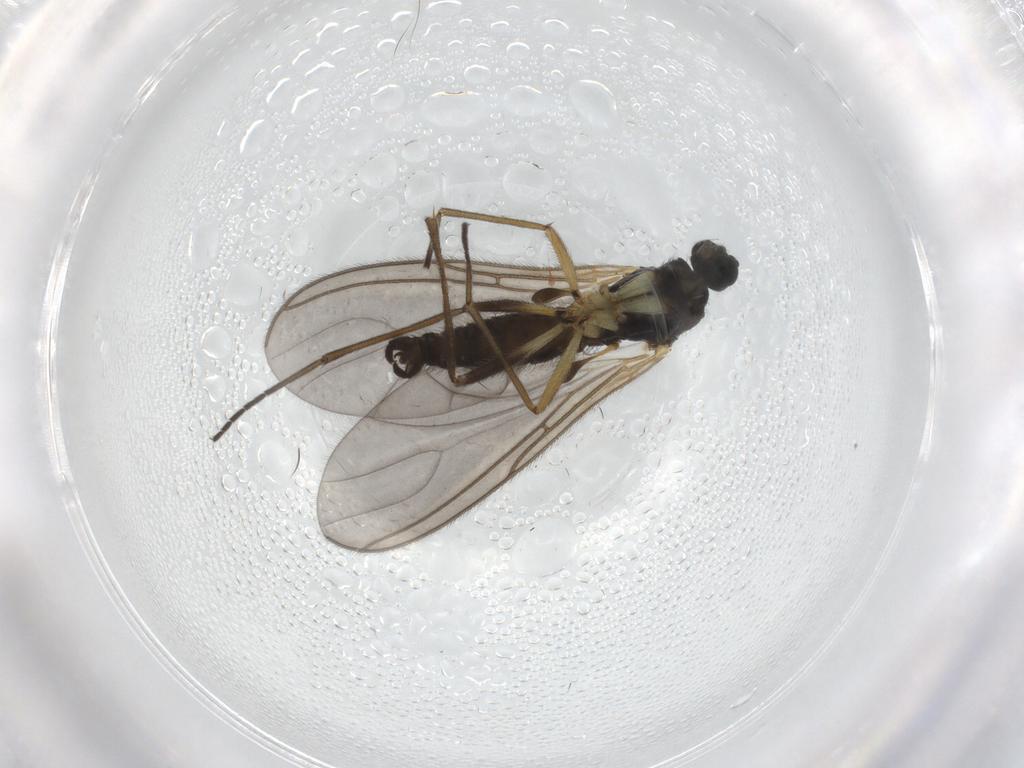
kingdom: Animalia
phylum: Arthropoda
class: Insecta
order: Diptera
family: Sciaridae
